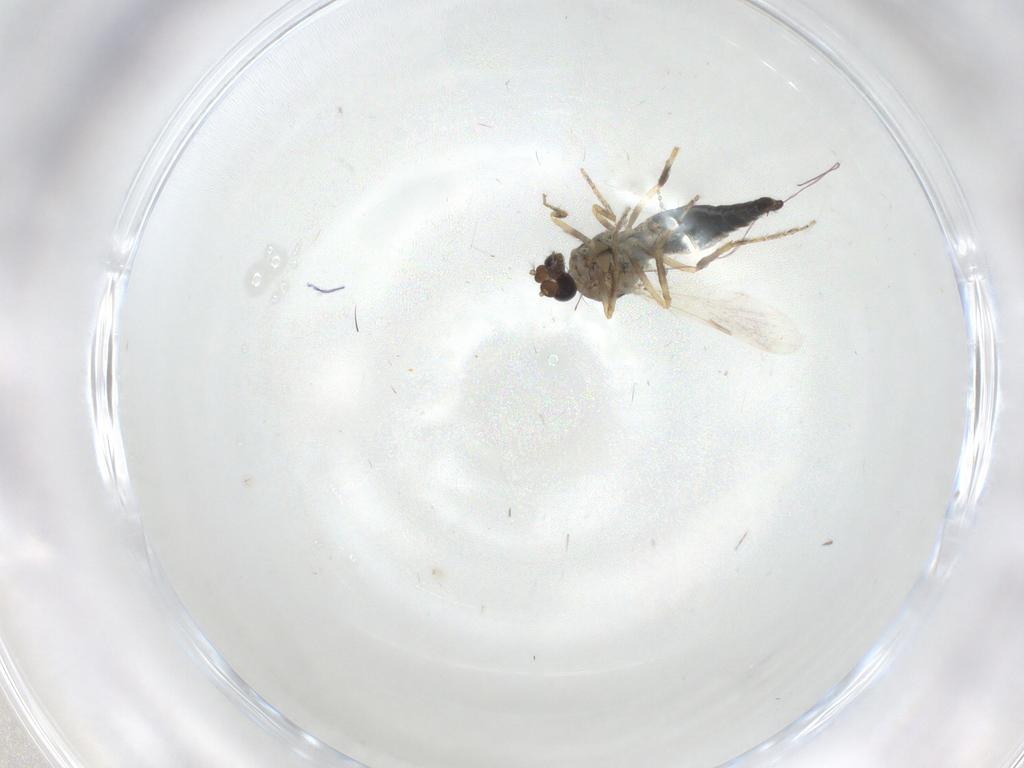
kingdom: Animalia
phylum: Arthropoda
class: Insecta
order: Diptera
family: Ceratopogonidae
